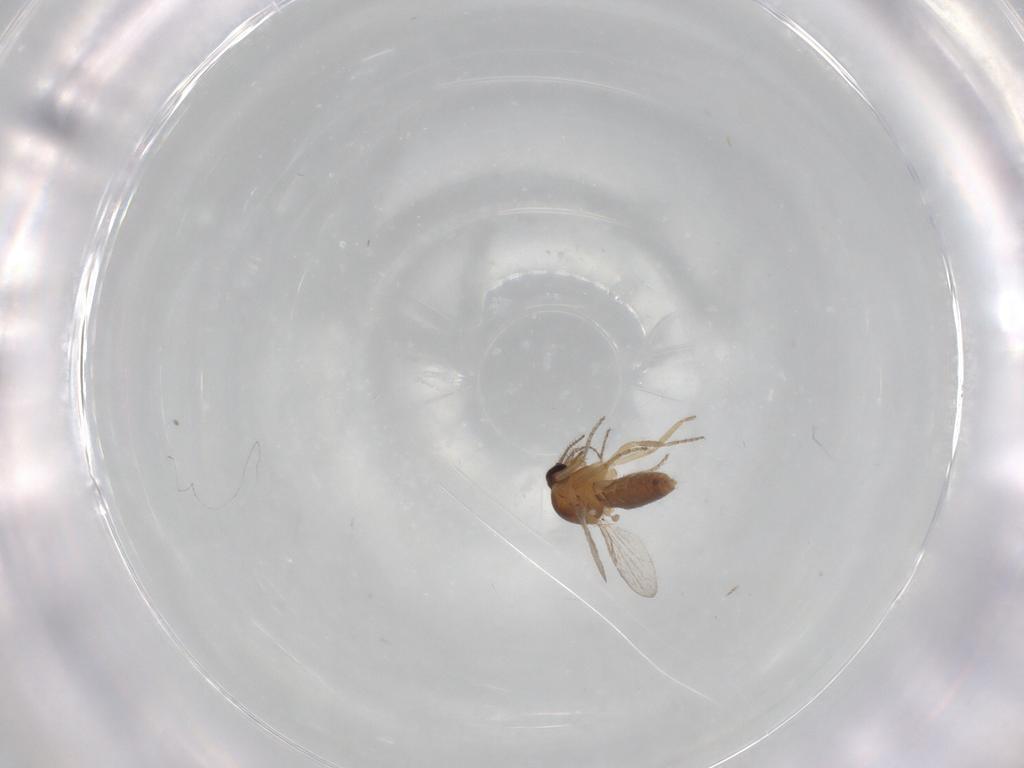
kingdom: Animalia
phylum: Arthropoda
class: Insecta
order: Diptera
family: Ceratopogonidae
